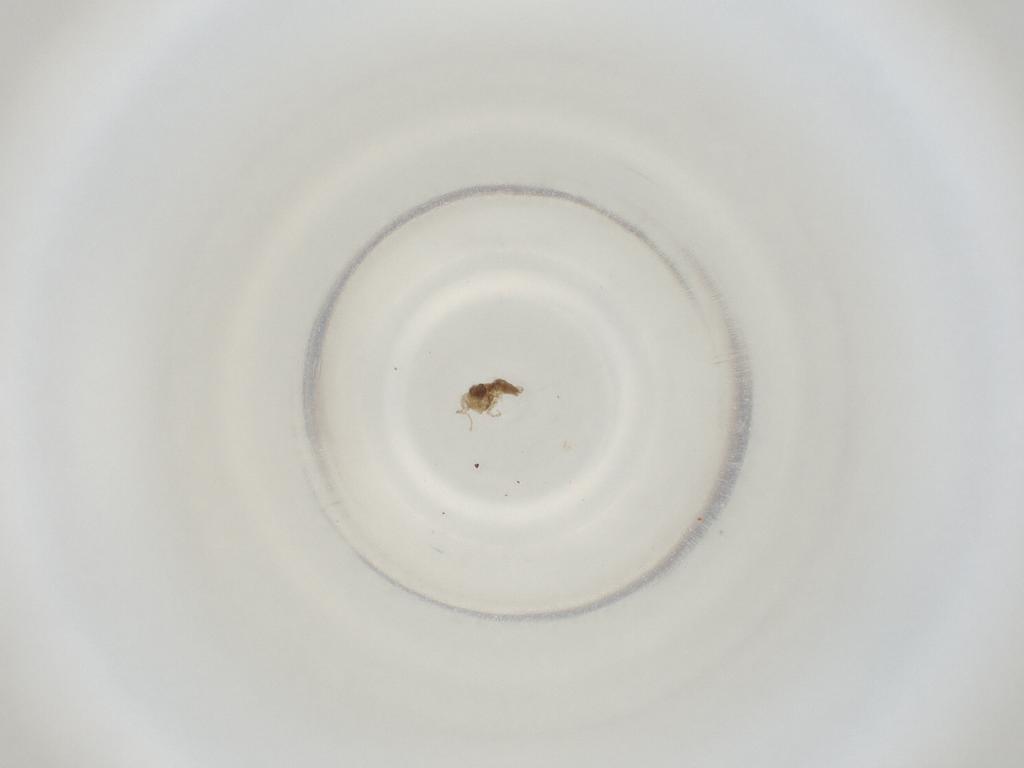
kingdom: Animalia
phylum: Arthropoda
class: Insecta
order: Diptera
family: Cecidomyiidae
